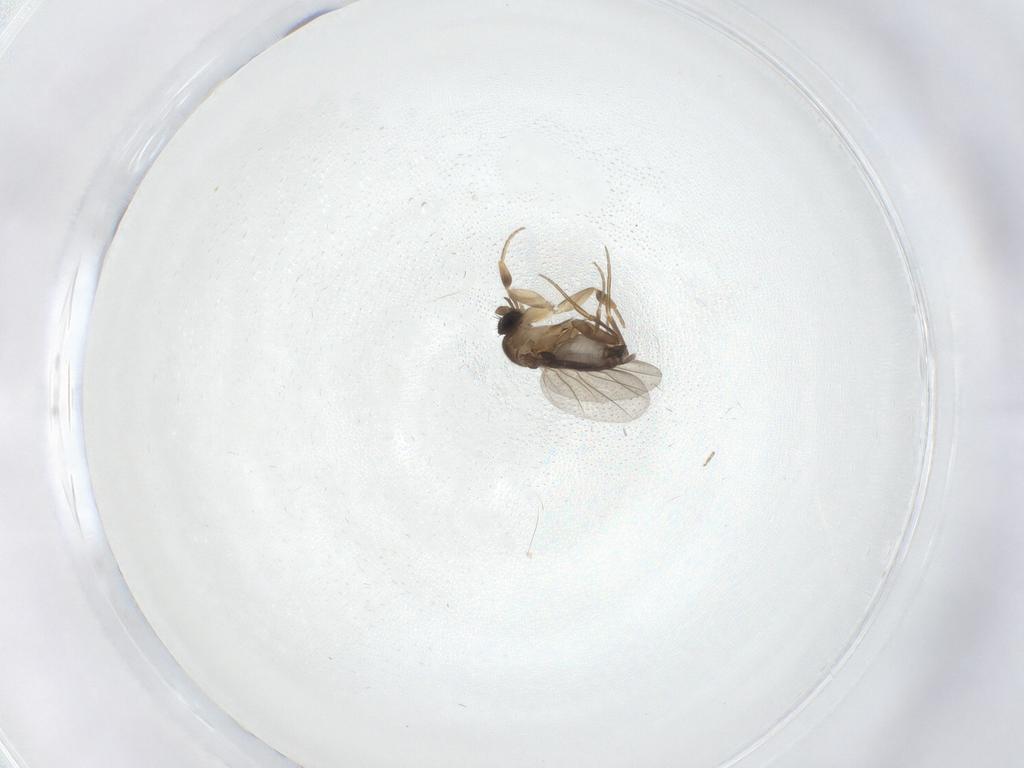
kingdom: Animalia
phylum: Arthropoda
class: Insecta
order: Diptera
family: Phoridae
